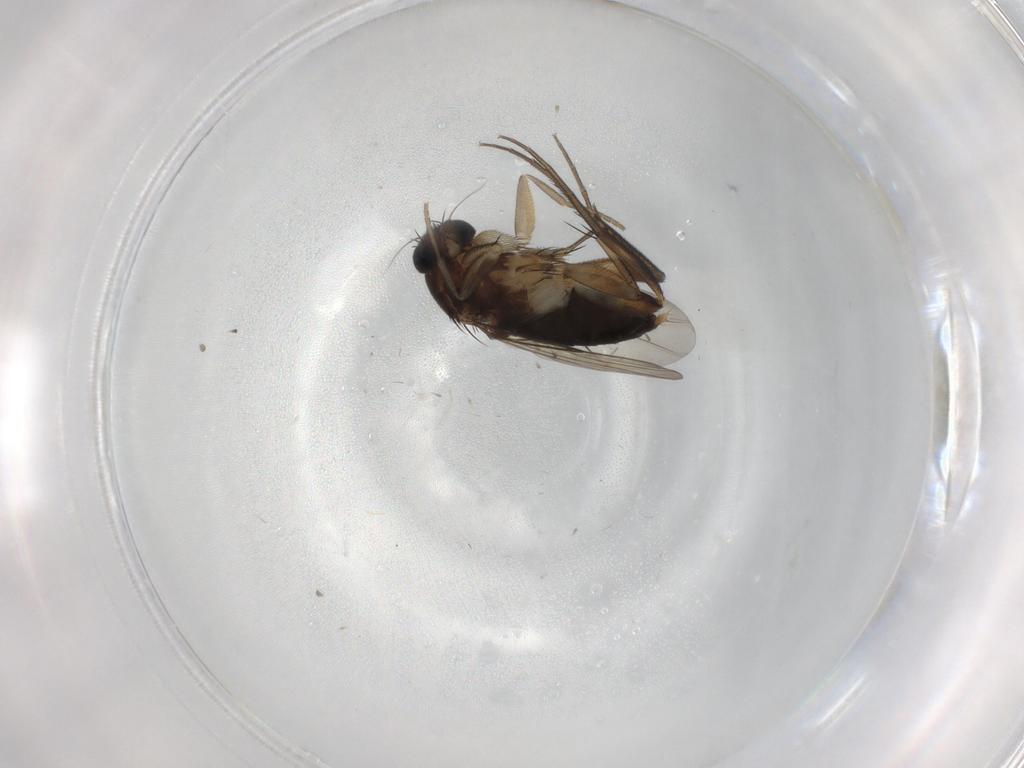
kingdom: Animalia
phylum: Arthropoda
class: Insecta
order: Diptera
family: Phoridae
